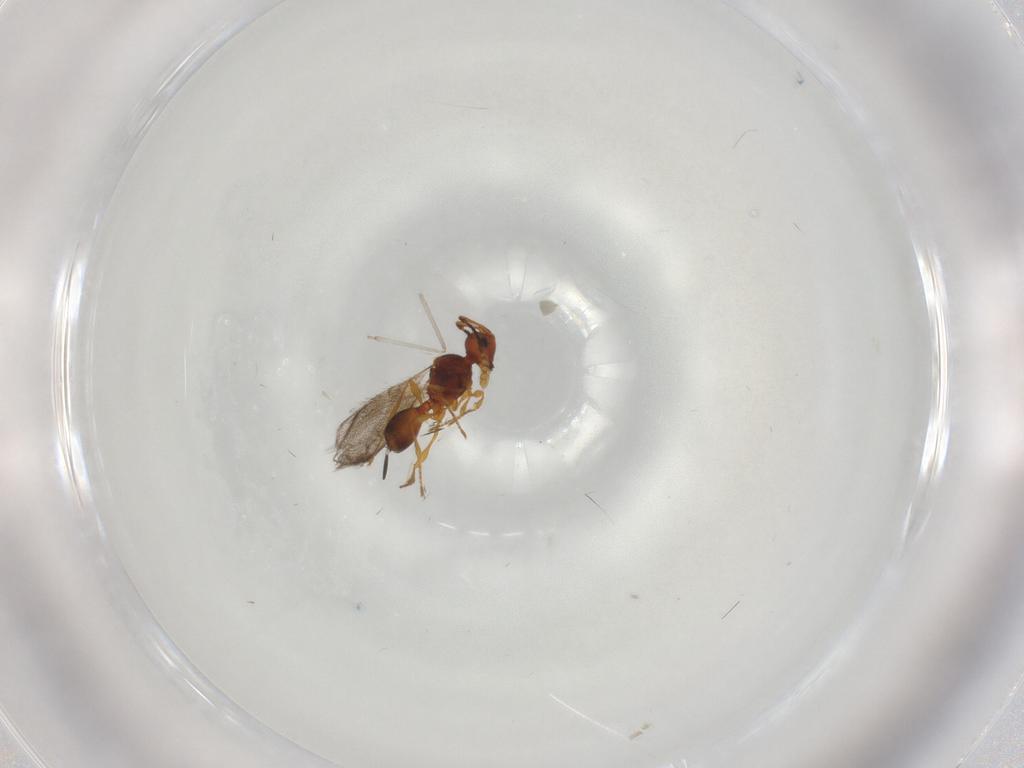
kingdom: Animalia
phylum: Arthropoda
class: Insecta
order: Hymenoptera
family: Diapriidae
